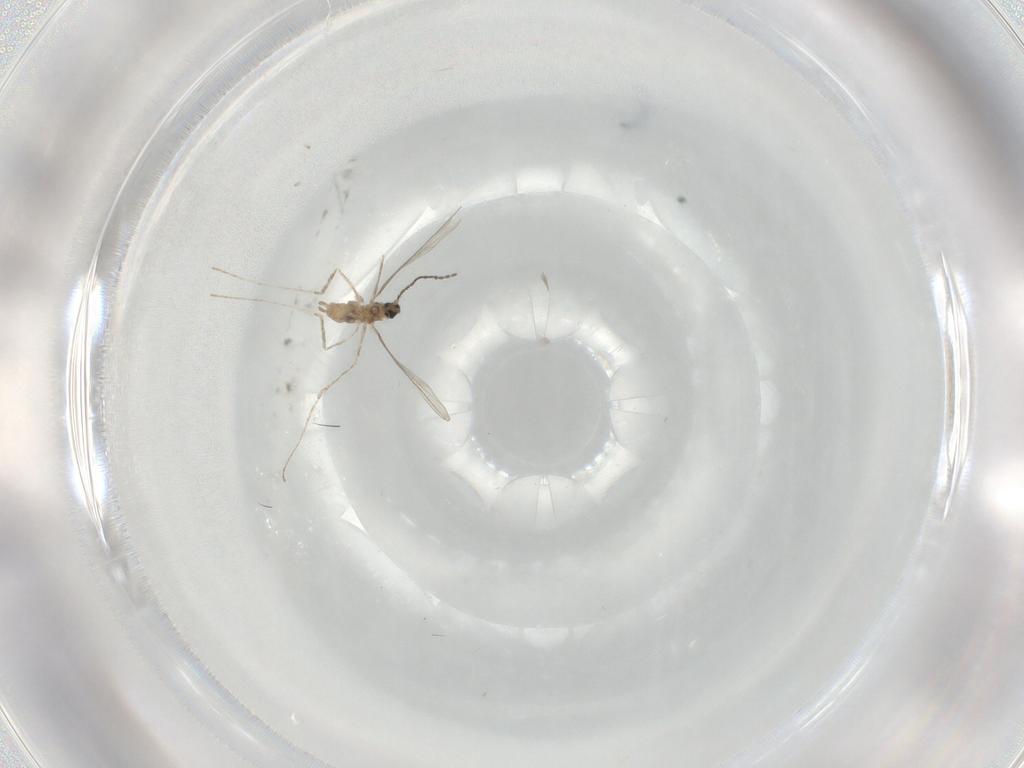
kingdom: Animalia
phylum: Arthropoda
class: Insecta
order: Diptera
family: Cecidomyiidae
